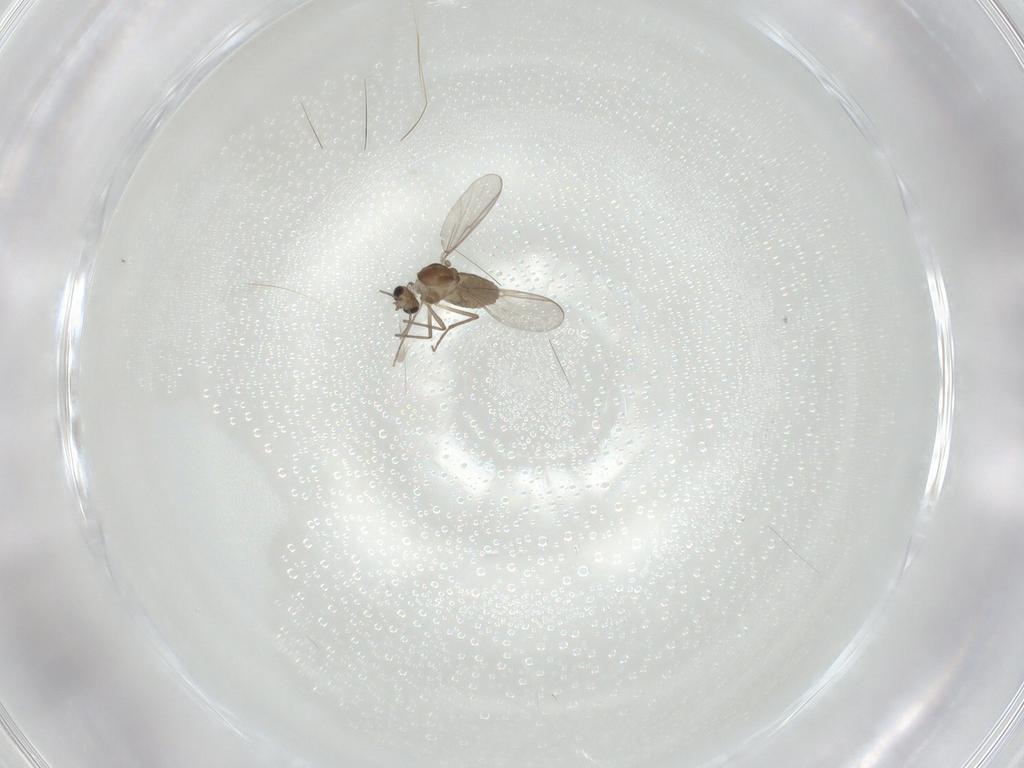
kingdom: Animalia
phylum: Arthropoda
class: Insecta
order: Diptera
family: Chironomidae
